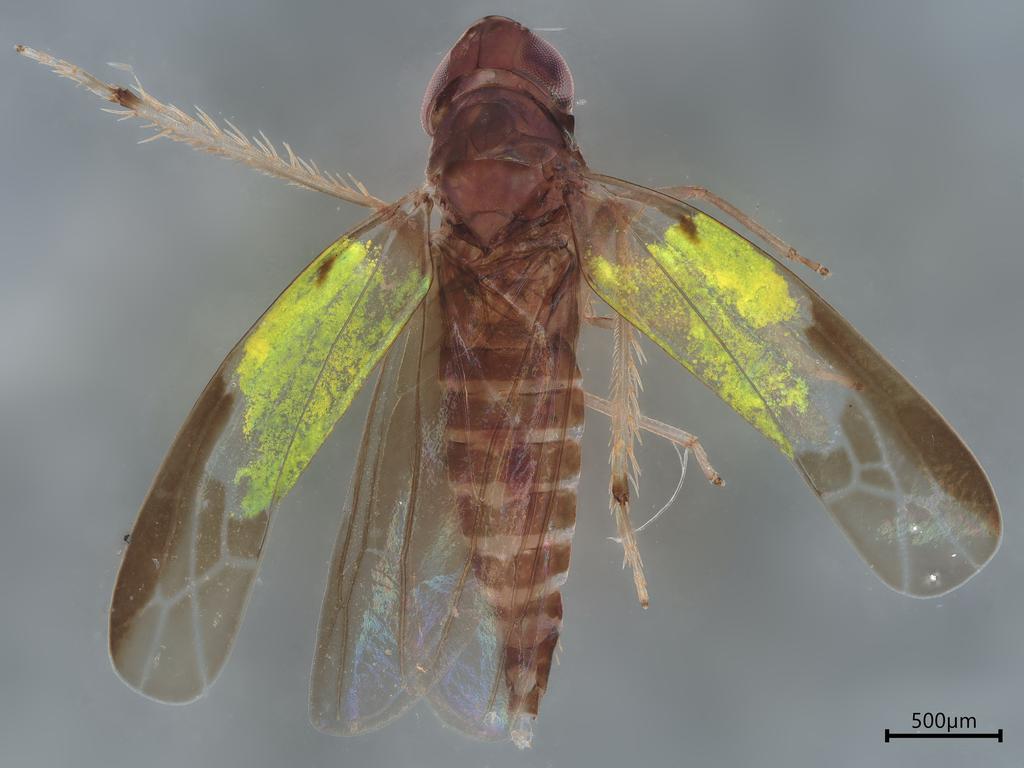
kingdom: Animalia
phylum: Arthropoda
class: Insecta
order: Hemiptera
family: Cicadellidae
